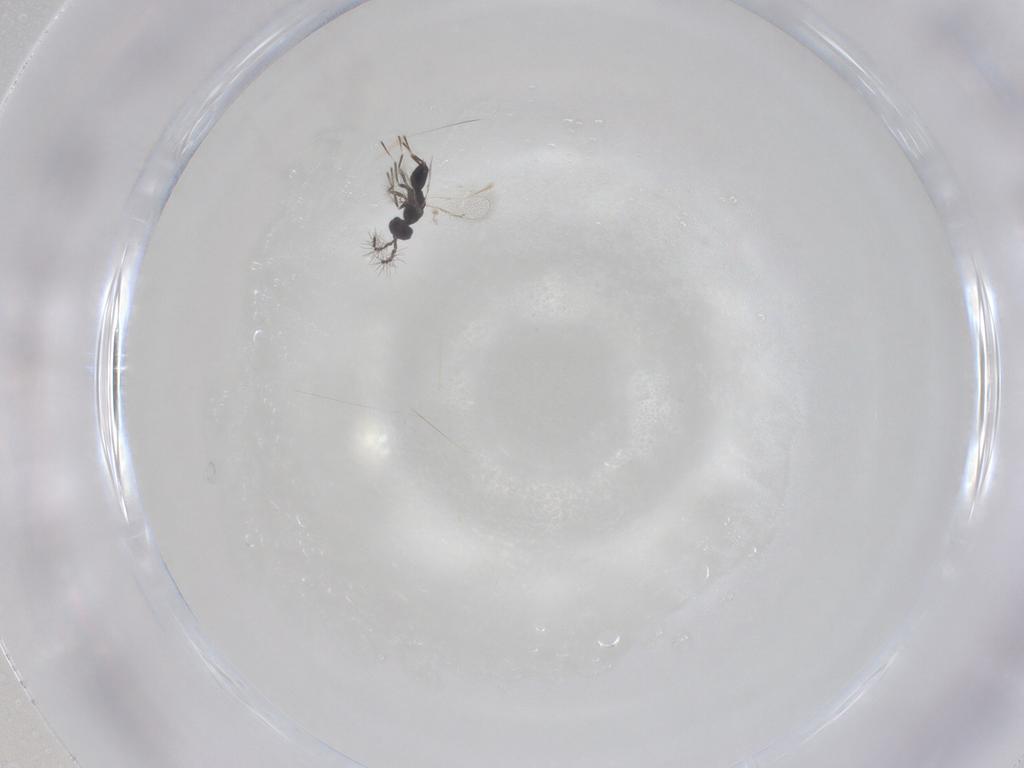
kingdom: Animalia
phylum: Arthropoda
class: Insecta
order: Hymenoptera
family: Eulophidae
